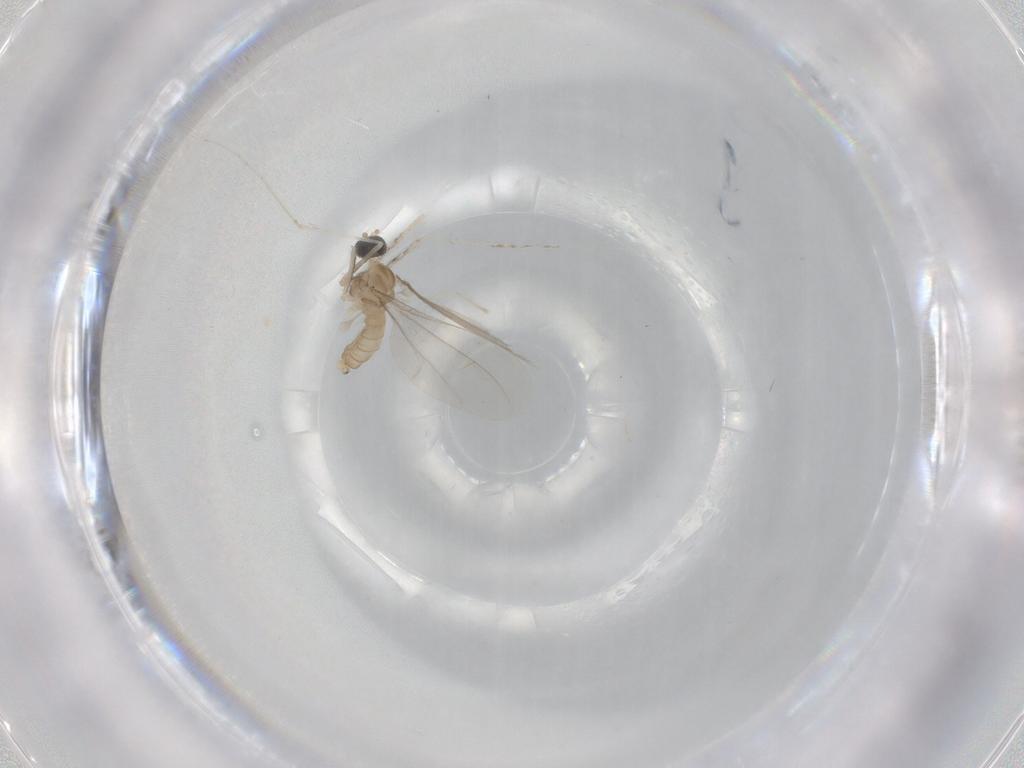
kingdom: Animalia
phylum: Arthropoda
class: Insecta
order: Diptera
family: Cecidomyiidae
